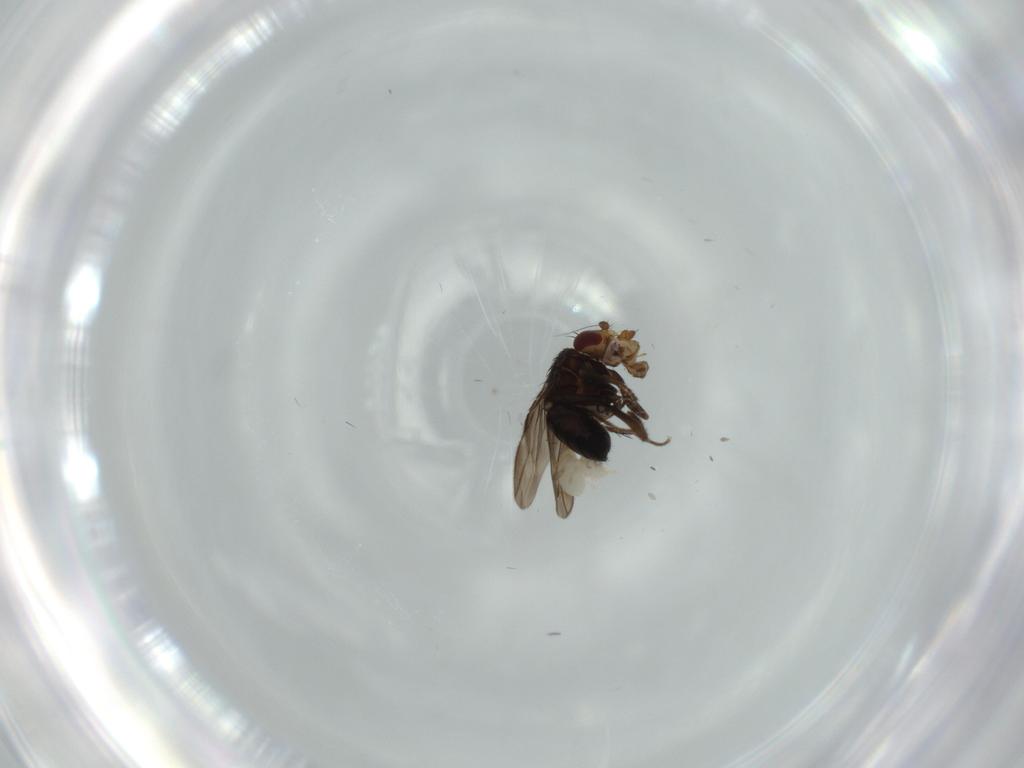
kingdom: Animalia
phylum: Arthropoda
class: Insecta
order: Diptera
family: Sphaeroceridae
